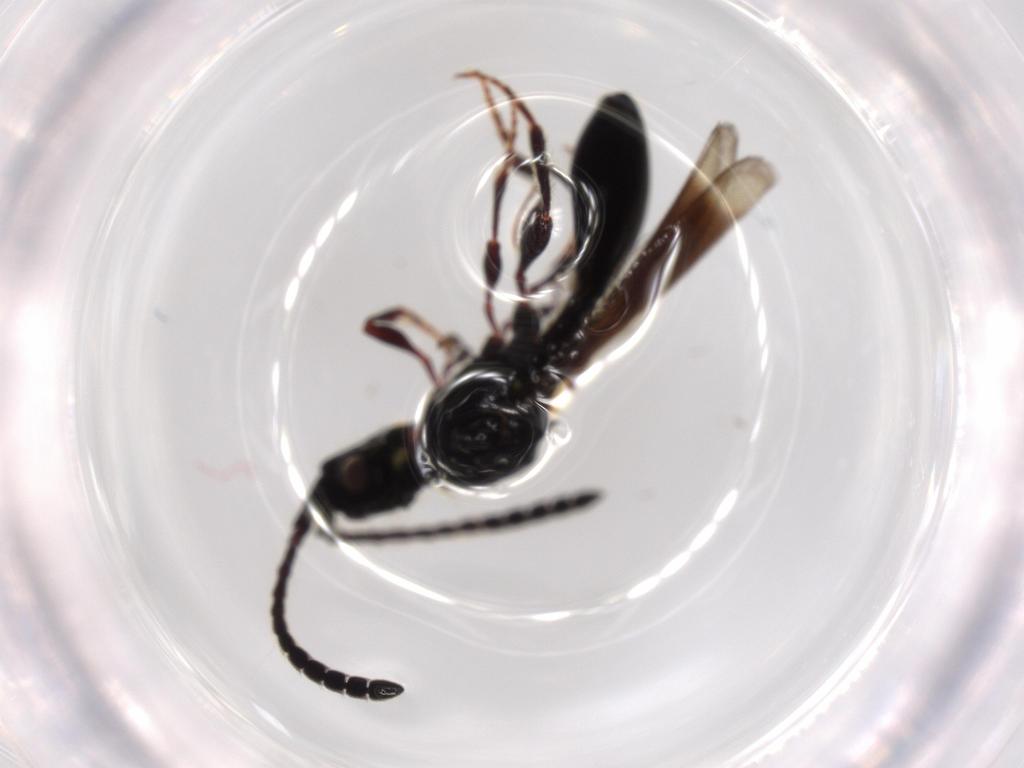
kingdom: Animalia
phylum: Arthropoda
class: Insecta
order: Hymenoptera
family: Diapriidae
